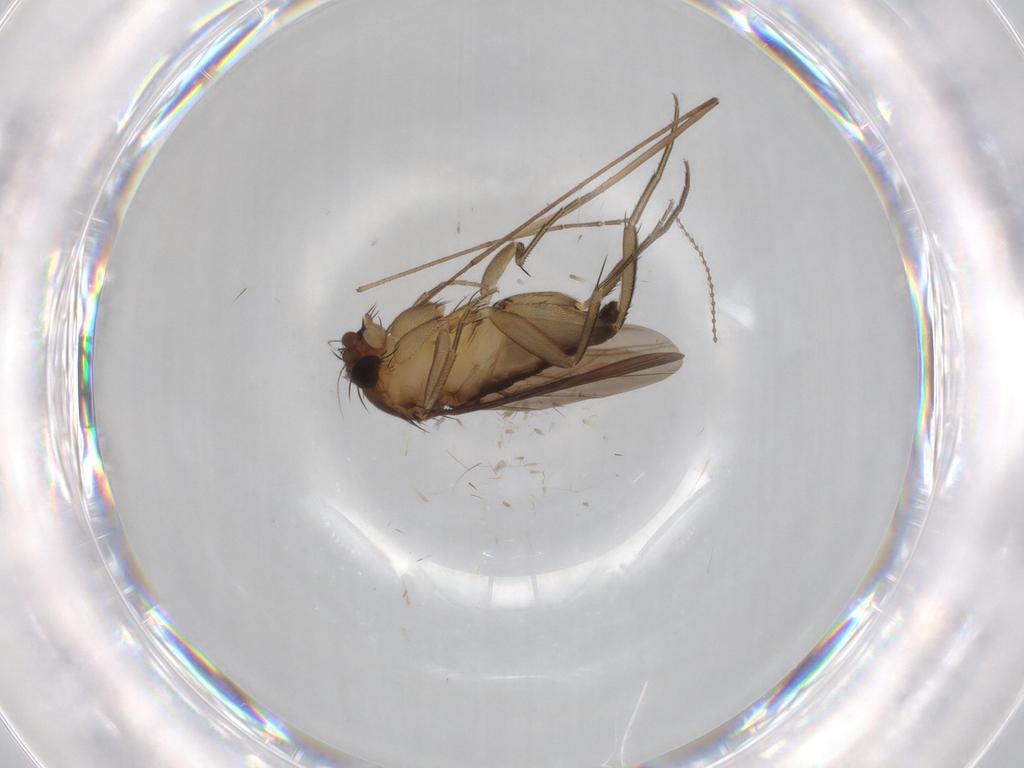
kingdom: Animalia
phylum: Arthropoda
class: Insecta
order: Diptera
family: Phoridae
